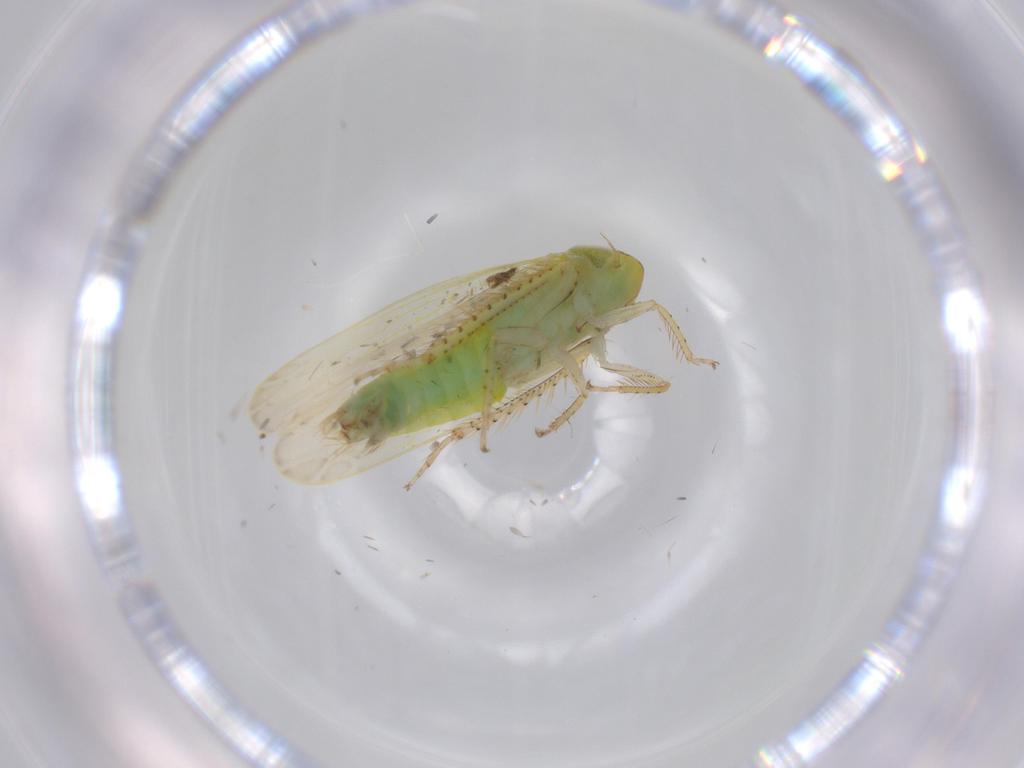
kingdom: Animalia
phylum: Arthropoda
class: Insecta
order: Hemiptera
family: Cicadellidae
